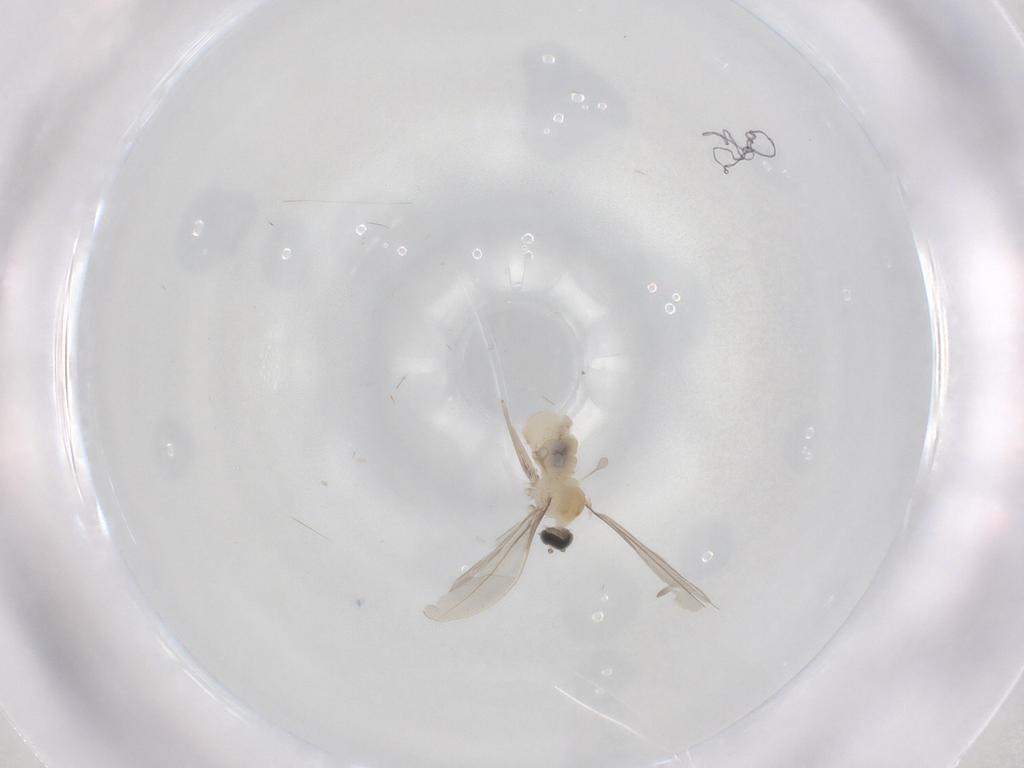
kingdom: Animalia
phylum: Arthropoda
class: Insecta
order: Diptera
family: Cecidomyiidae
